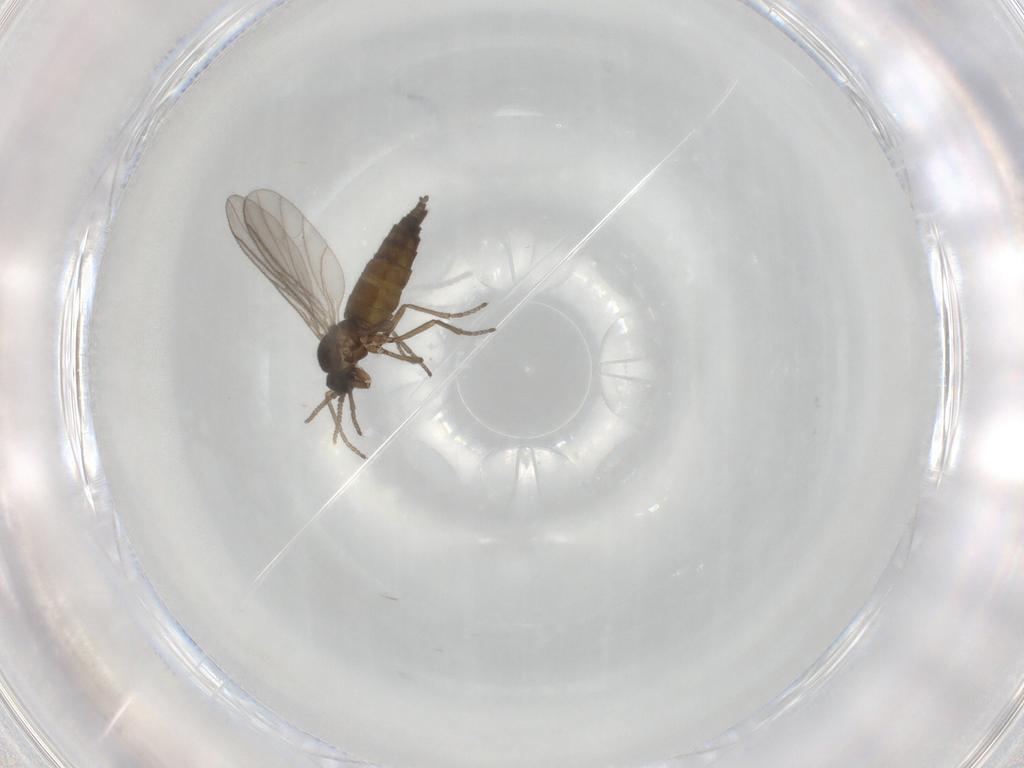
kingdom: Animalia
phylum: Arthropoda
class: Insecta
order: Diptera
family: Sciaridae
